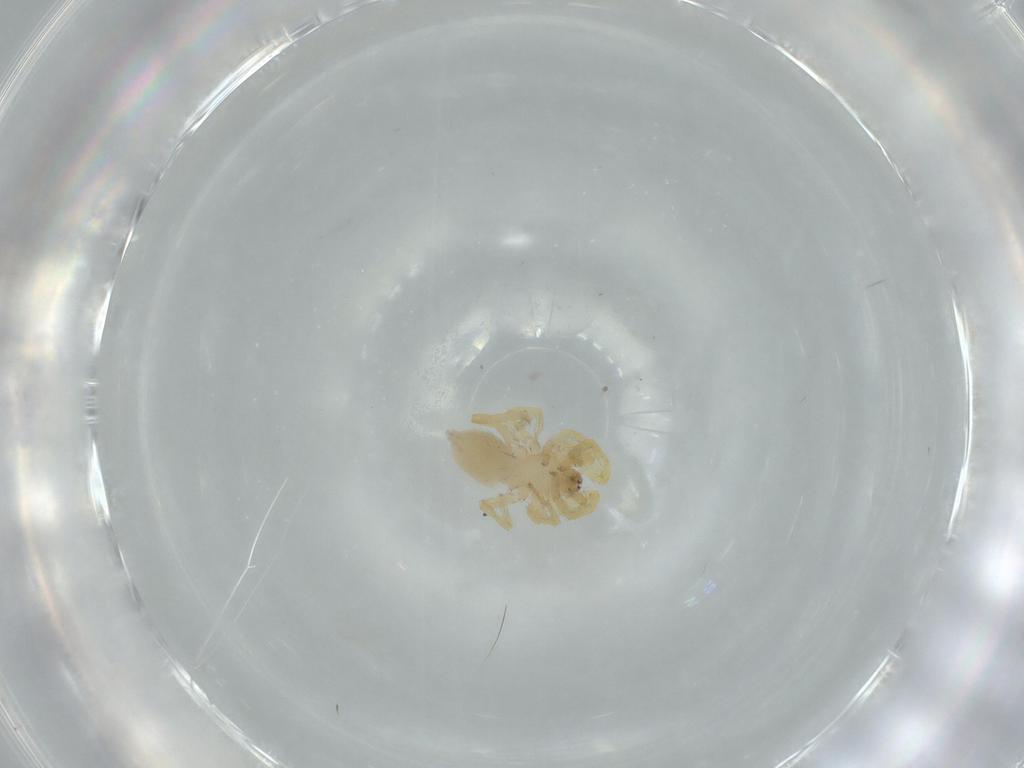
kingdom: Animalia
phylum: Arthropoda
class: Arachnida
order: Araneae
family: Oonopidae
